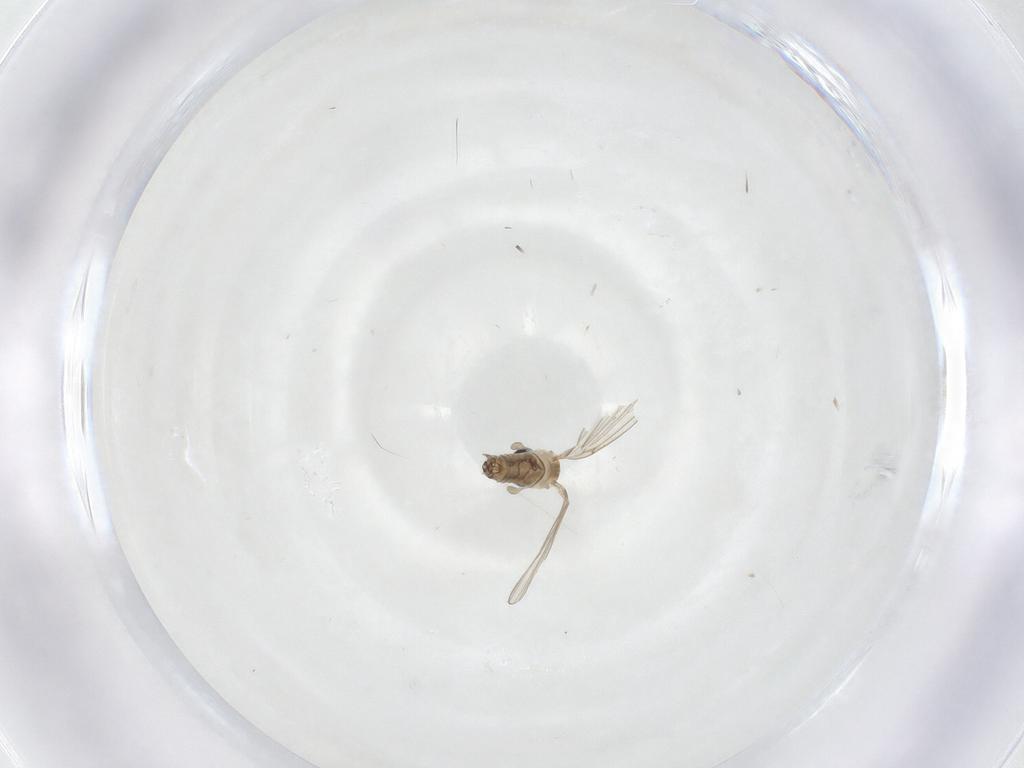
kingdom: Animalia
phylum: Arthropoda
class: Insecta
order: Diptera
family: Psychodidae
